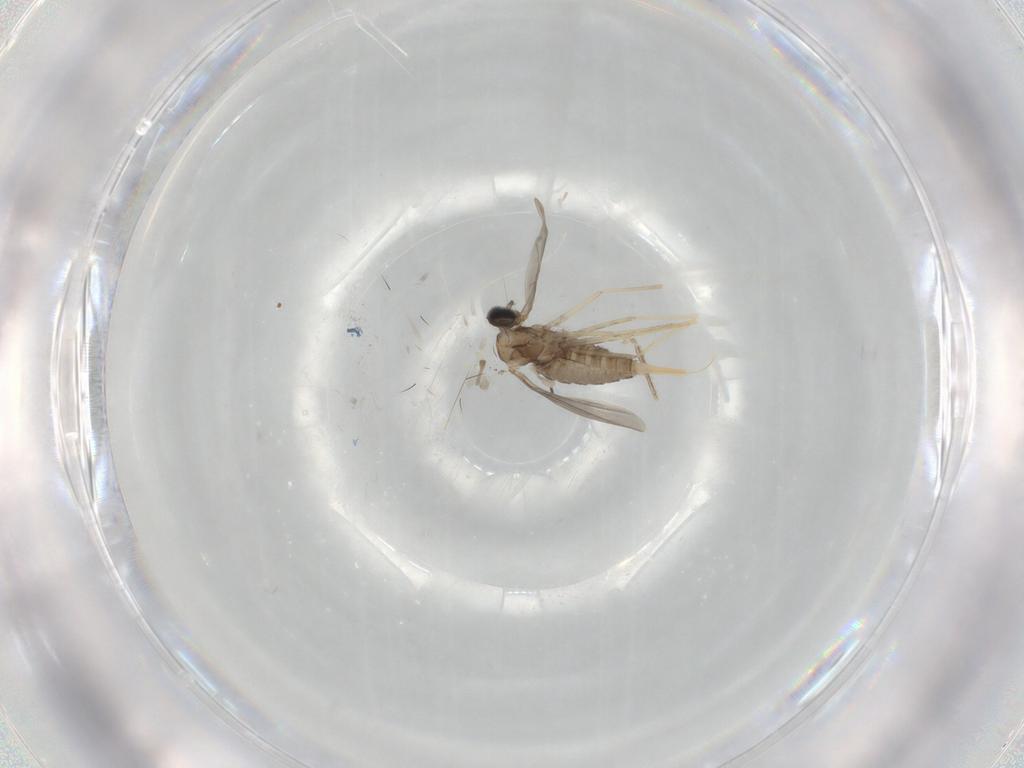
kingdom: Animalia
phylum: Arthropoda
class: Insecta
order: Diptera
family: Cecidomyiidae
